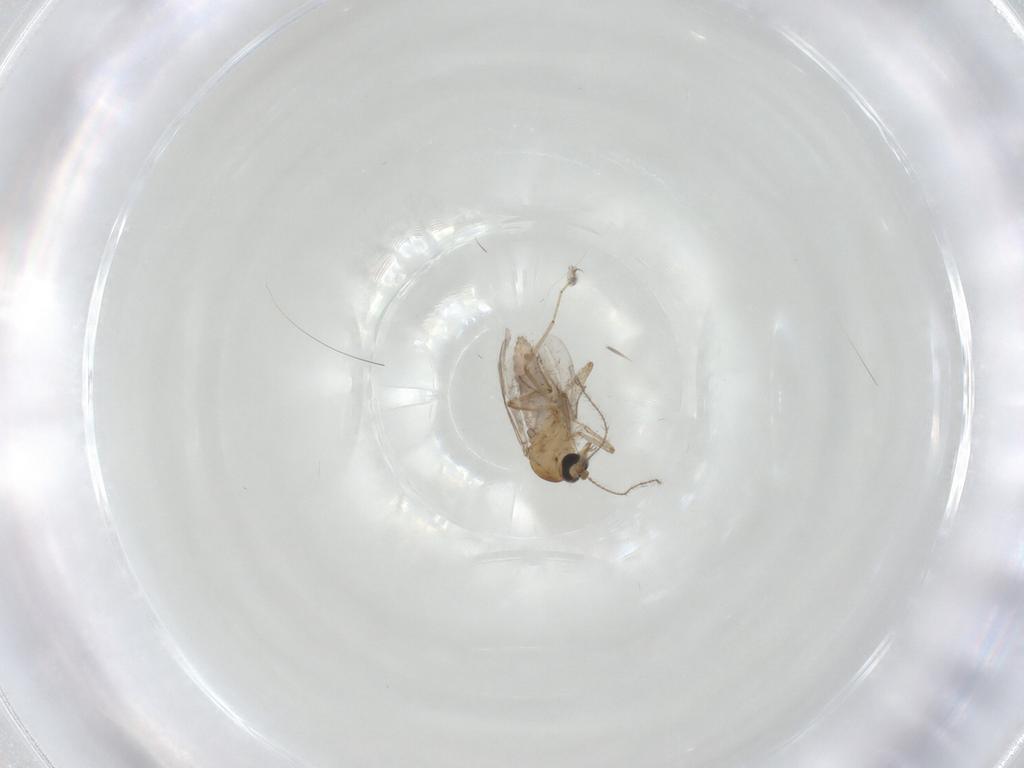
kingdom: Animalia
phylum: Arthropoda
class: Insecta
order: Diptera
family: Ceratopogonidae
